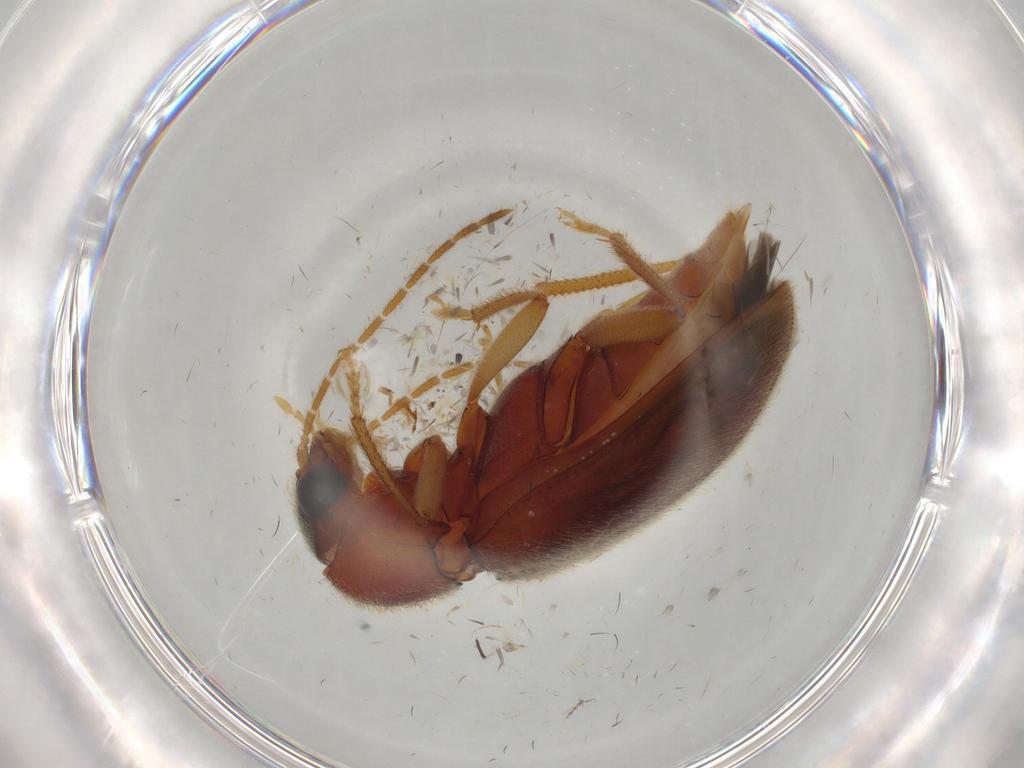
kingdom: Animalia
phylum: Arthropoda
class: Insecta
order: Coleoptera
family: Ptilodactylidae
